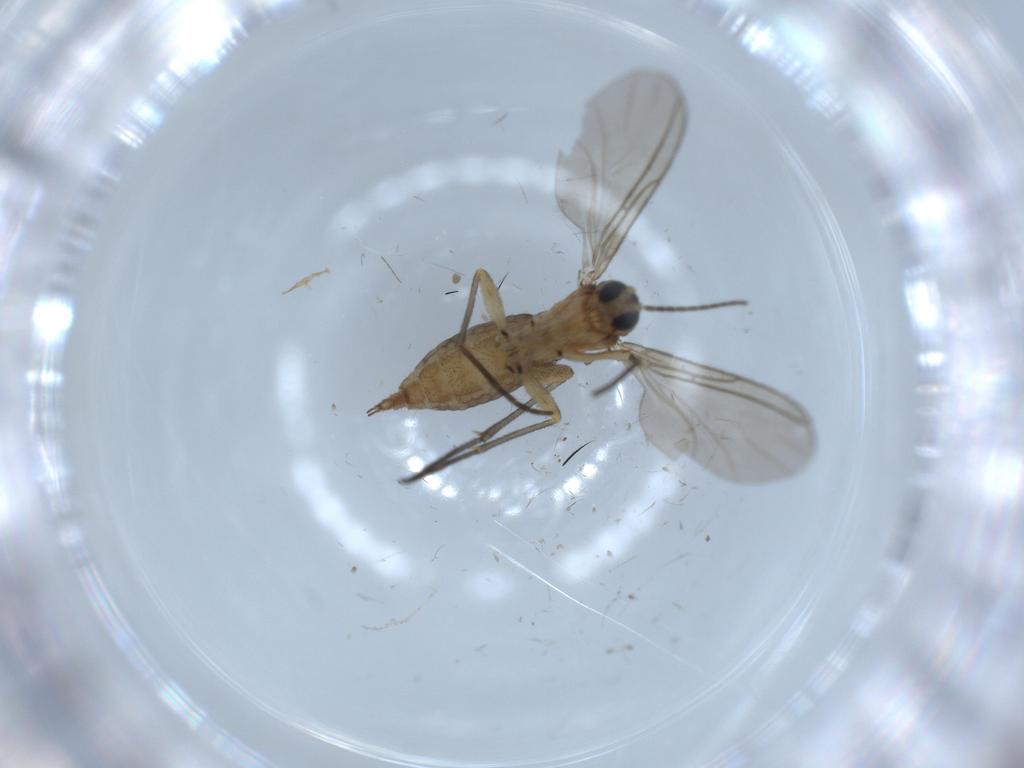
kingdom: Animalia
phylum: Arthropoda
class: Insecta
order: Diptera
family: Sciaridae
